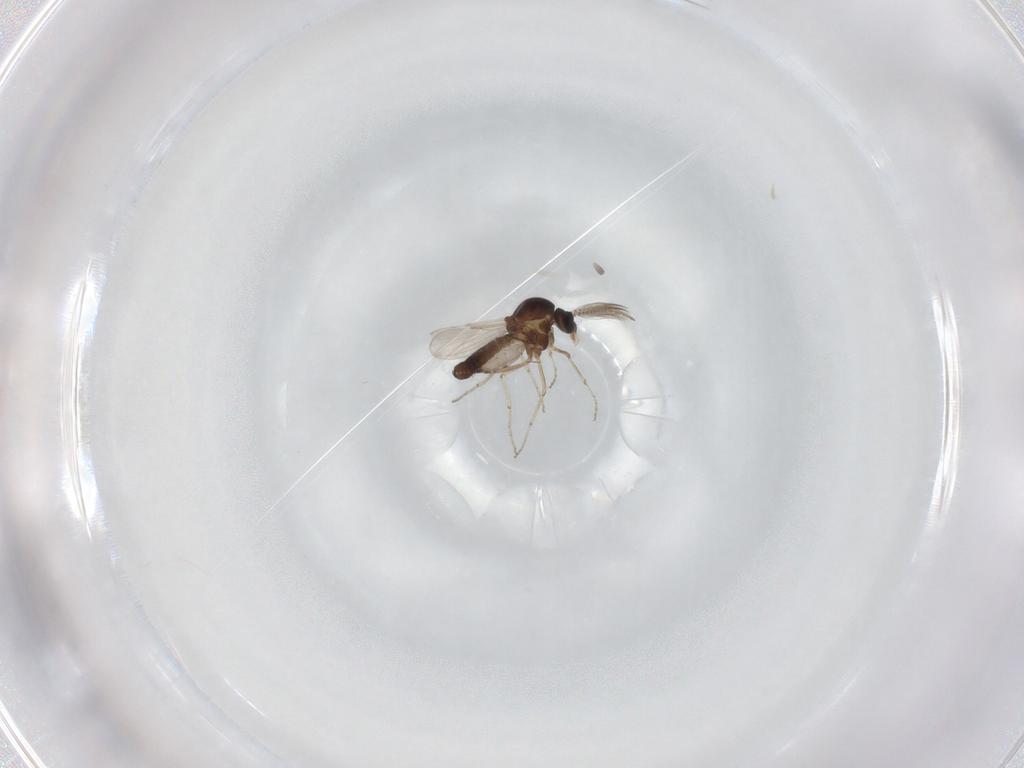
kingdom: Animalia
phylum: Arthropoda
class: Insecta
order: Diptera
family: Ceratopogonidae
